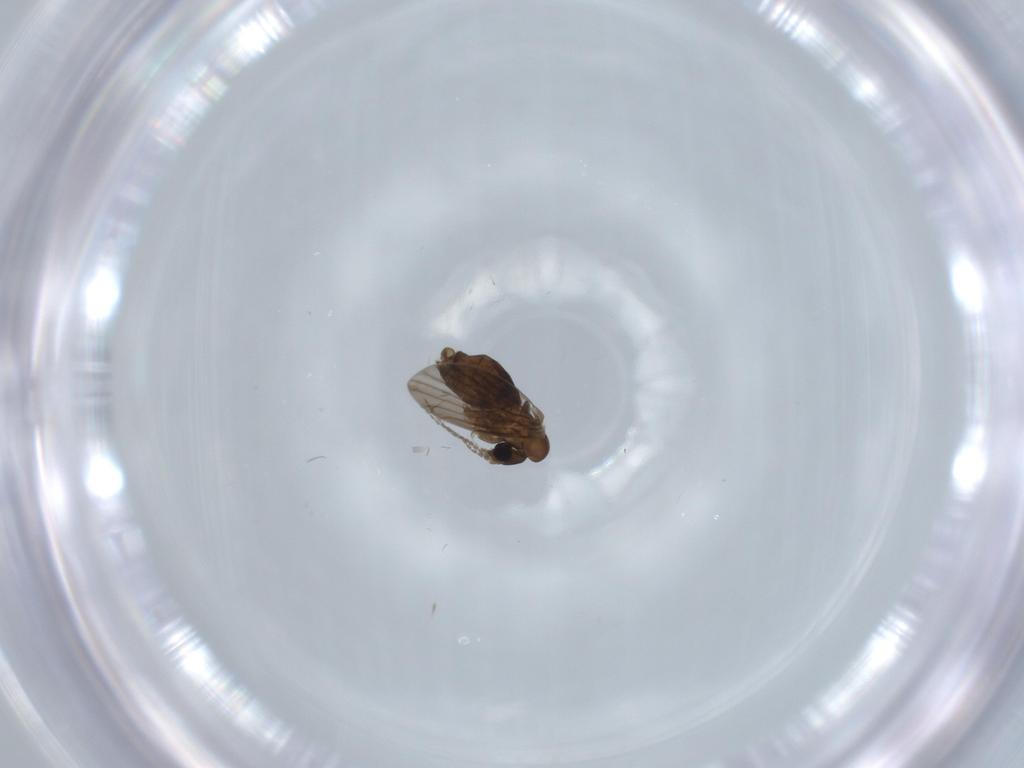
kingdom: Animalia
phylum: Arthropoda
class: Insecta
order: Diptera
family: Psychodidae
